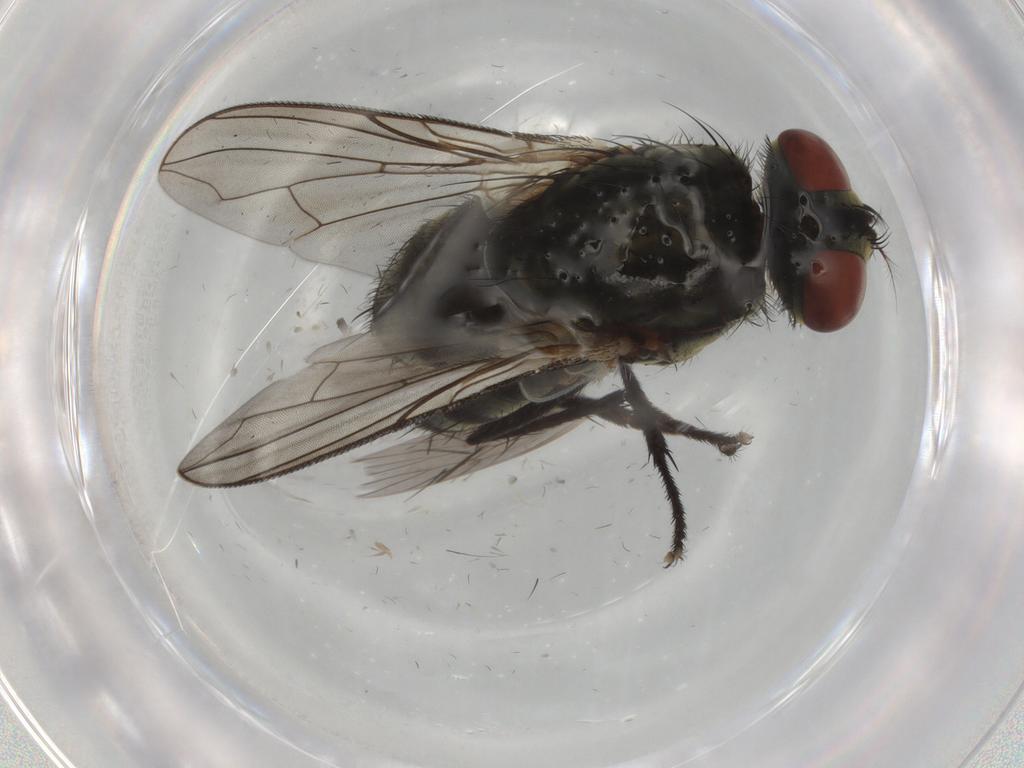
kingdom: Animalia
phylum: Arthropoda
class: Insecta
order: Diptera
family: Sarcophagidae
